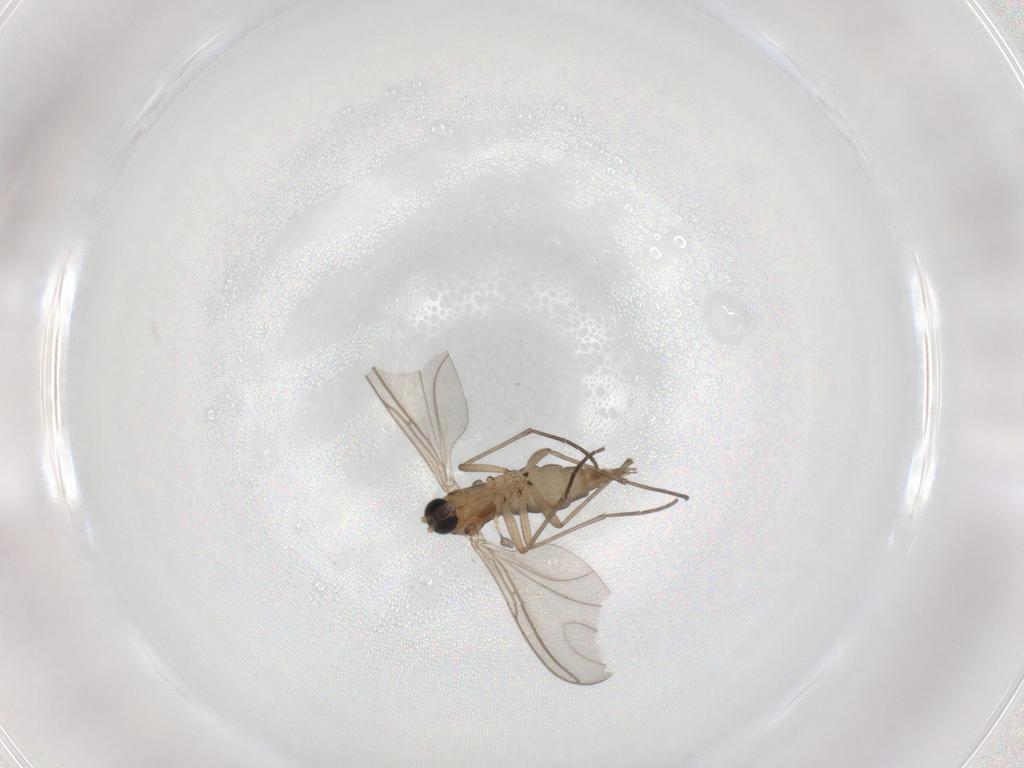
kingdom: Animalia
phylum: Arthropoda
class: Insecta
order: Diptera
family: Sciaridae
